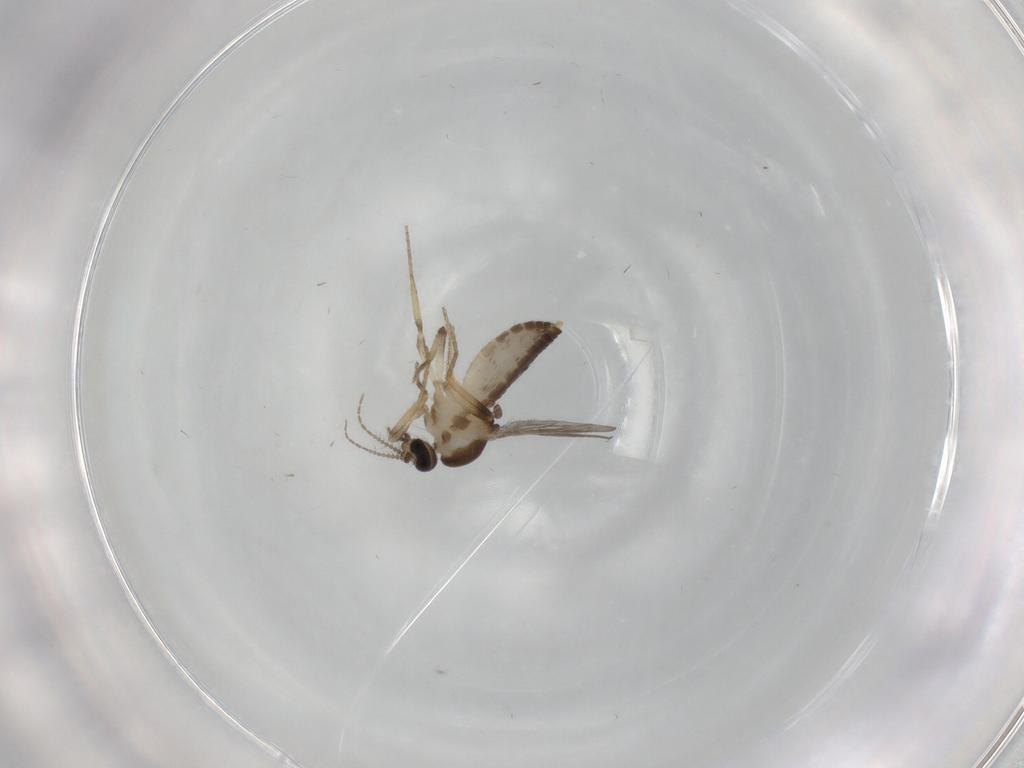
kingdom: Animalia
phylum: Arthropoda
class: Insecta
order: Diptera
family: Ceratopogonidae
